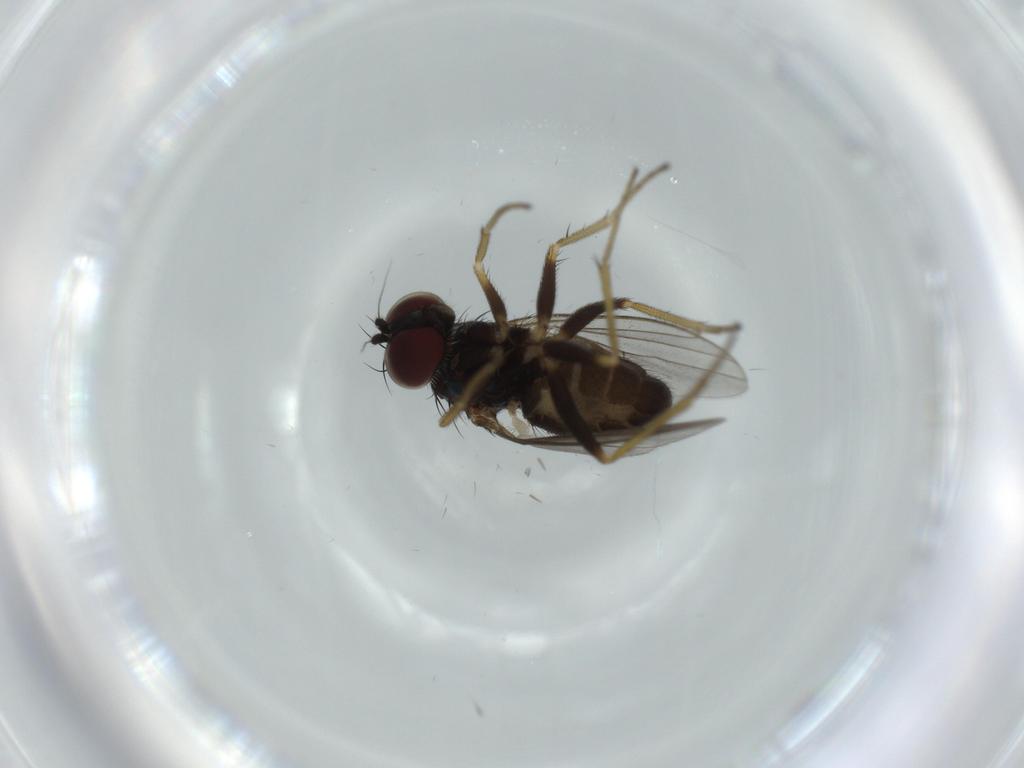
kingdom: Animalia
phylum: Arthropoda
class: Insecta
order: Diptera
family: Cecidomyiidae
